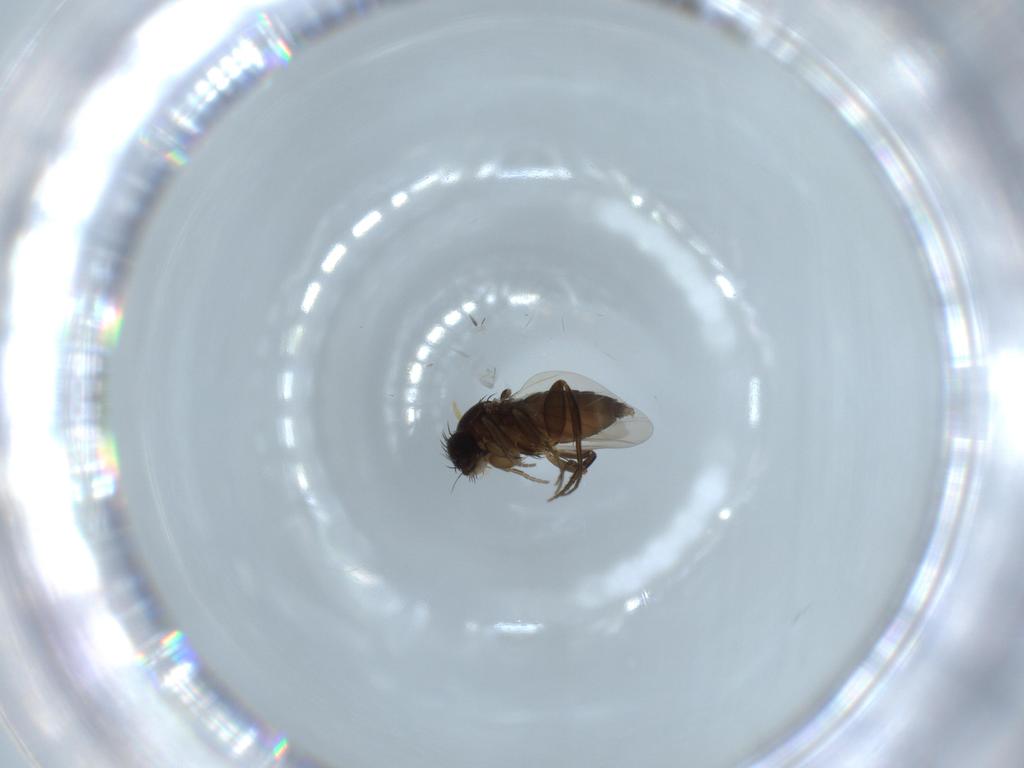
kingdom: Animalia
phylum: Arthropoda
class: Insecta
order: Diptera
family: Phoridae
